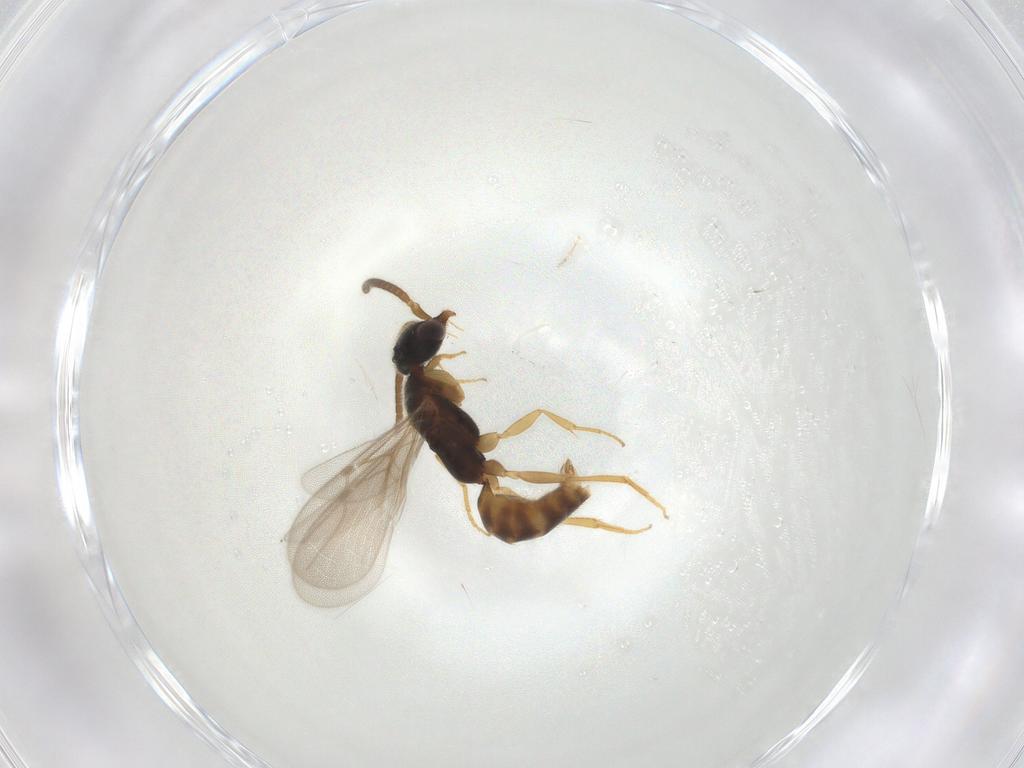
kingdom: Animalia
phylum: Arthropoda
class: Insecta
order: Hymenoptera
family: Bethylidae
